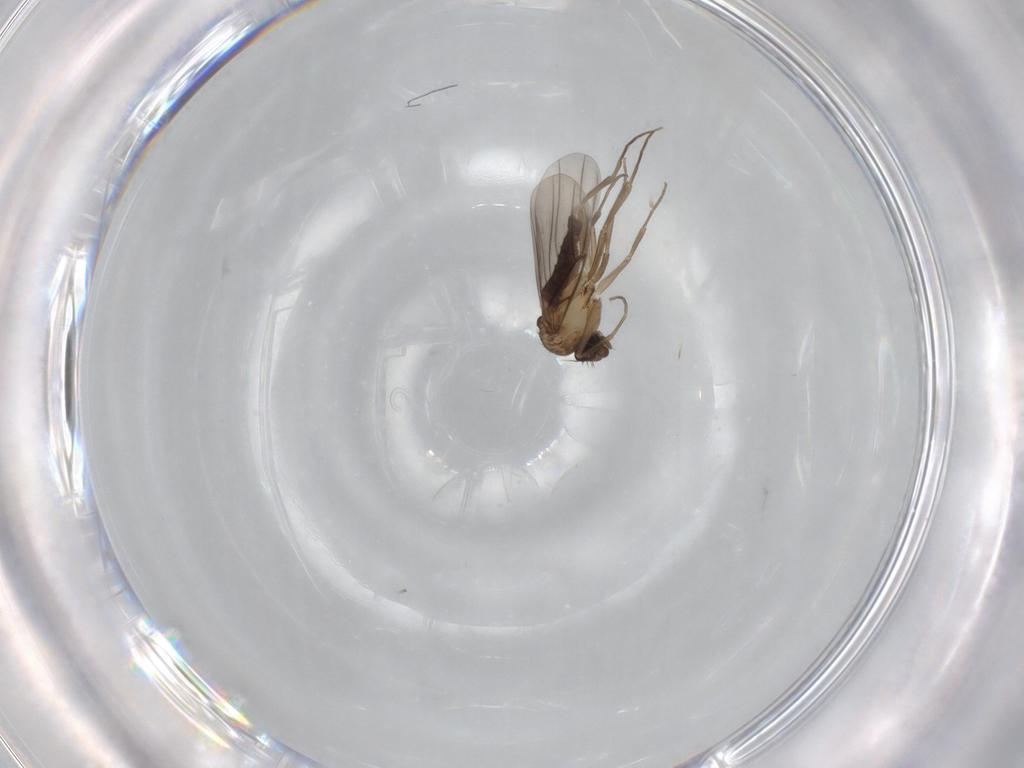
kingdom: Animalia
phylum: Arthropoda
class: Insecta
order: Diptera
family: Phoridae
